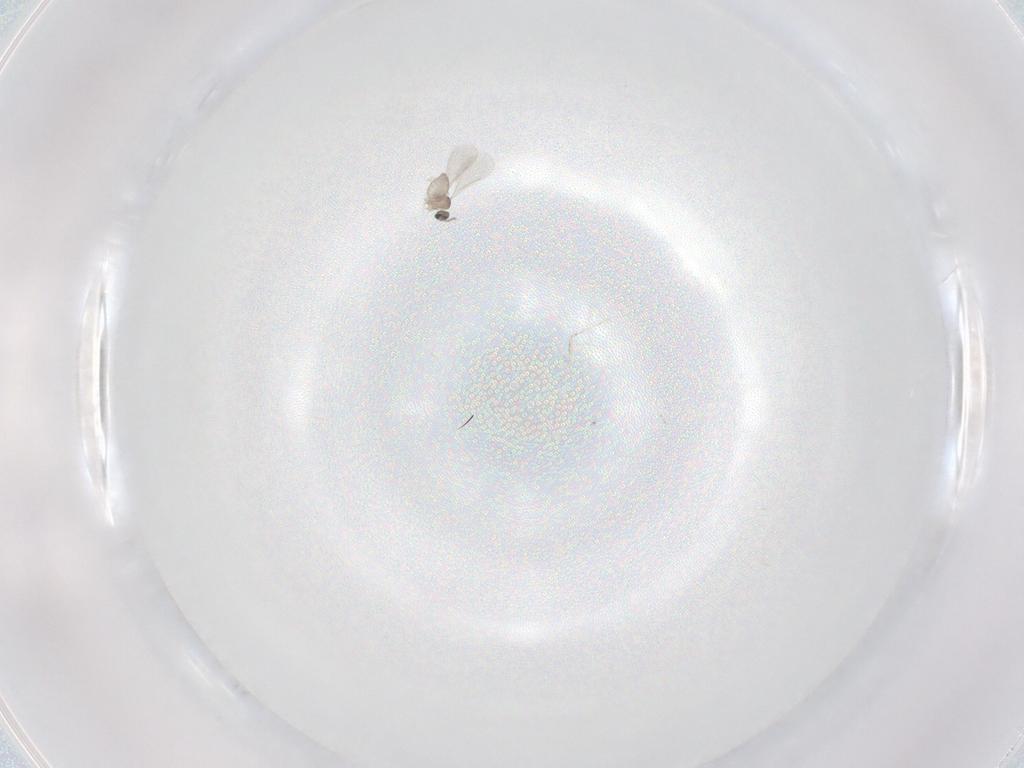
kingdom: Animalia
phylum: Arthropoda
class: Insecta
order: Diptera
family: Cecidomyiidae
